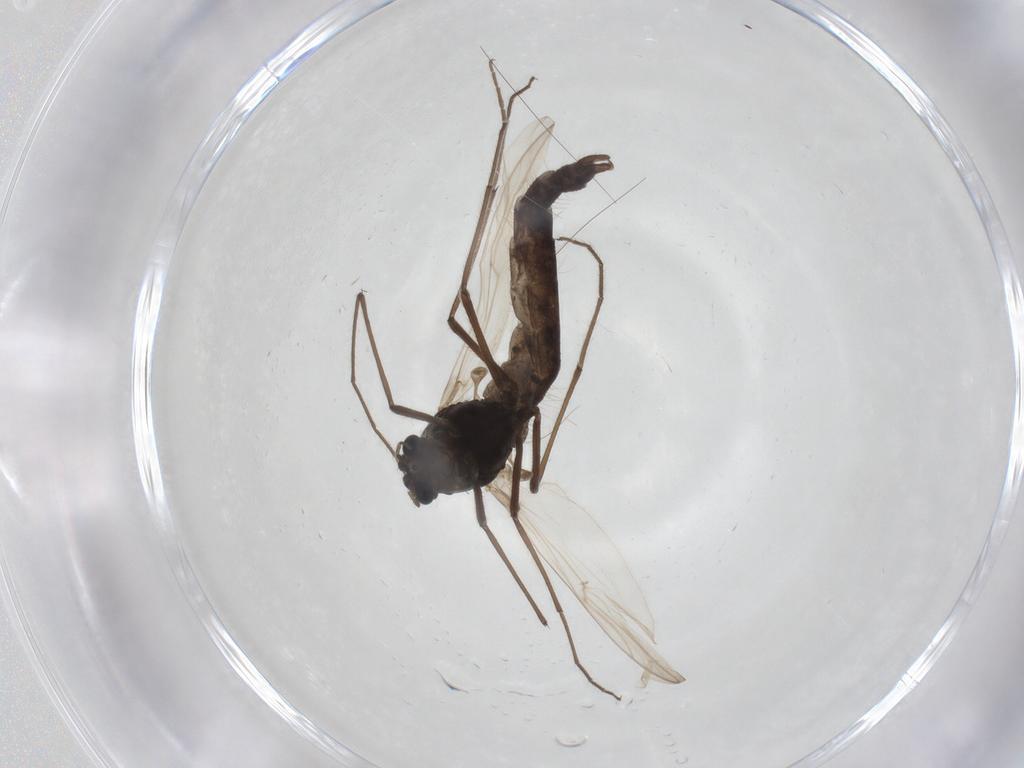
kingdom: Animalia
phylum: Arthropoda
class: Insecta
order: Diptera
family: Chironomidae
